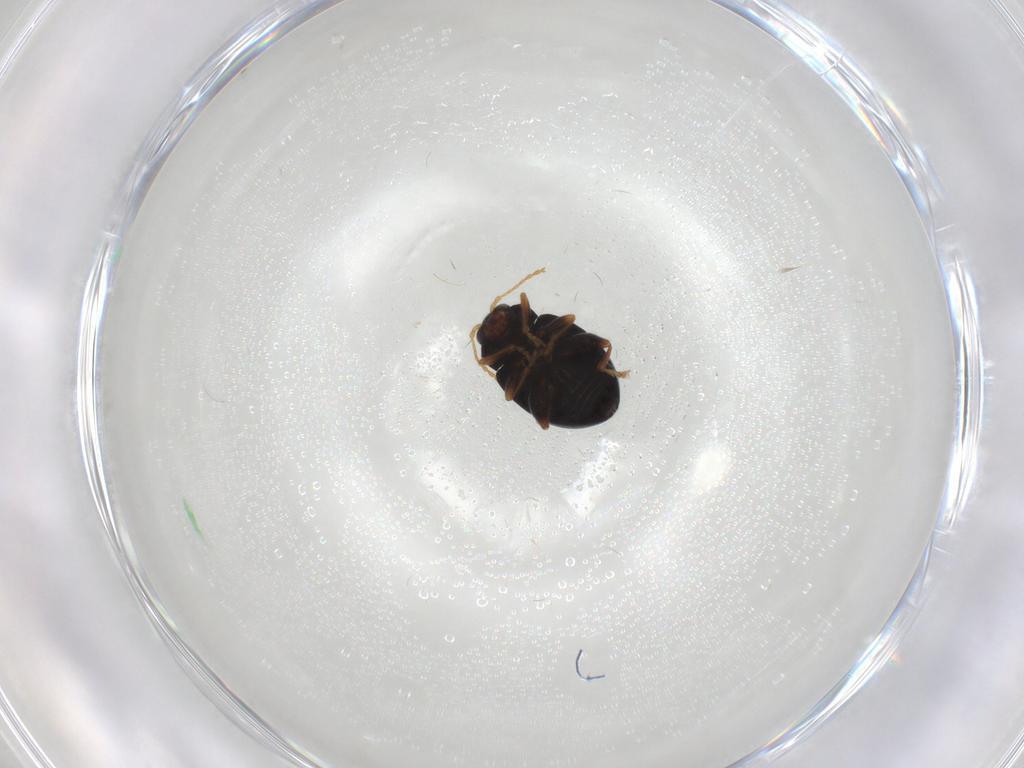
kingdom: Animalia
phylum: Arthropoda
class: Insecta
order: Coleoptera
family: Chrysomelidae
